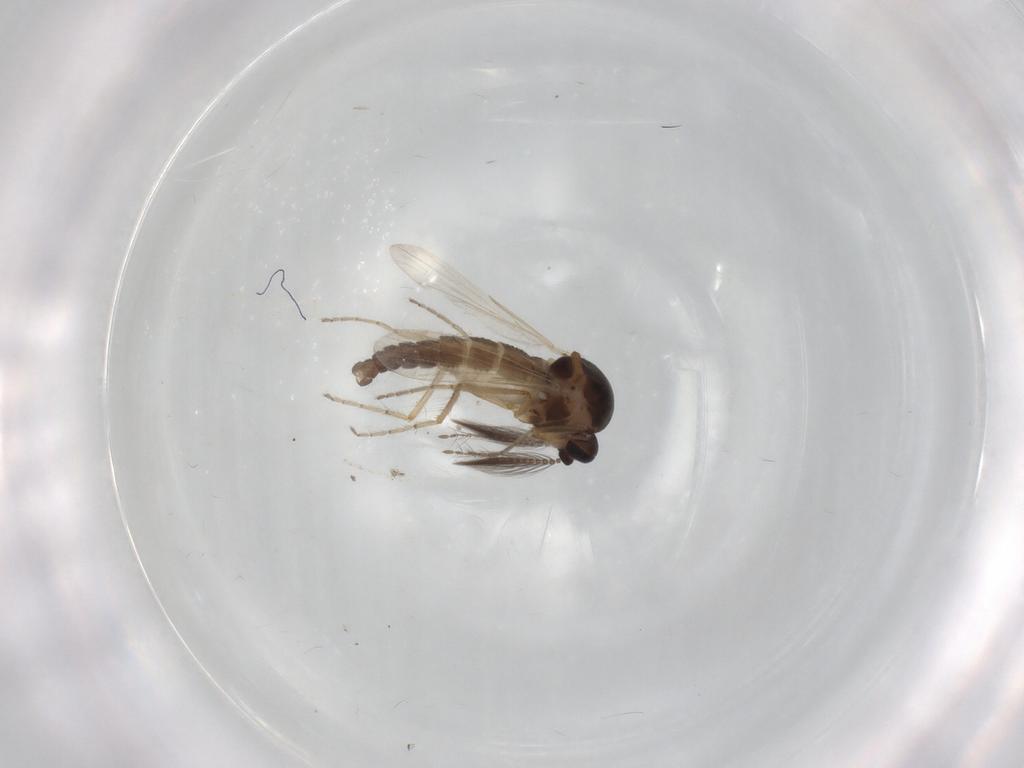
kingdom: Animalia
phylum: Arthropoda
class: Insecta
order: Diptera
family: Ceratopogonidae
